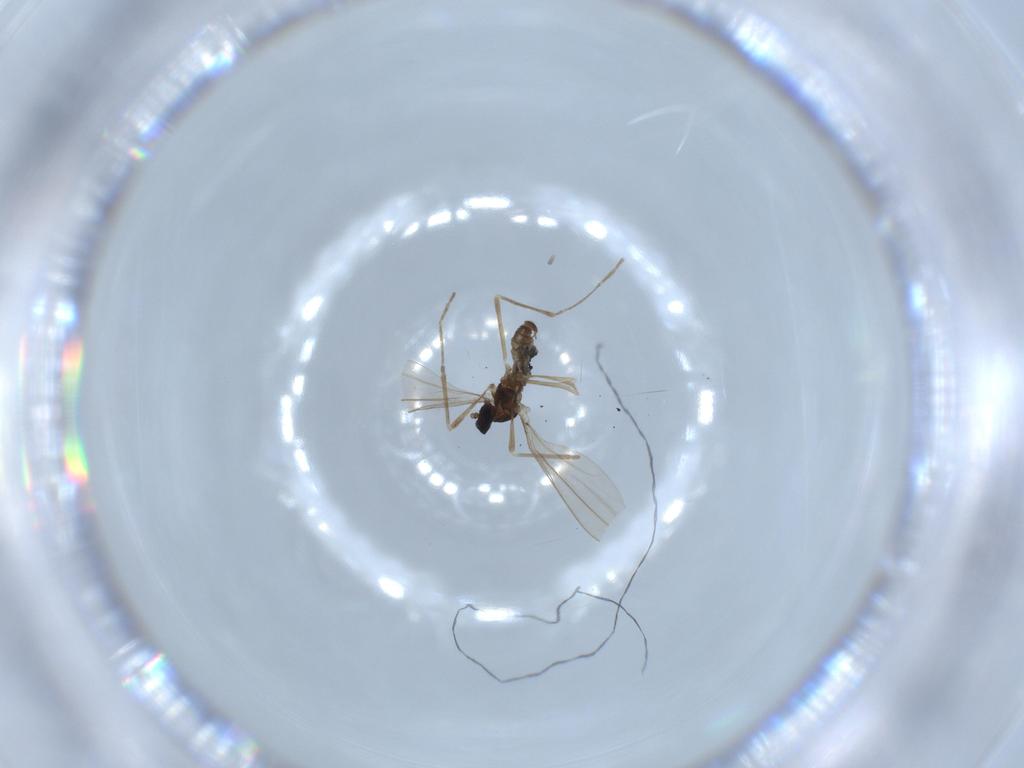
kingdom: Animalia
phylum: Arthropoda
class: Insecta
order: Diptera
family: Cecidomyiidae
